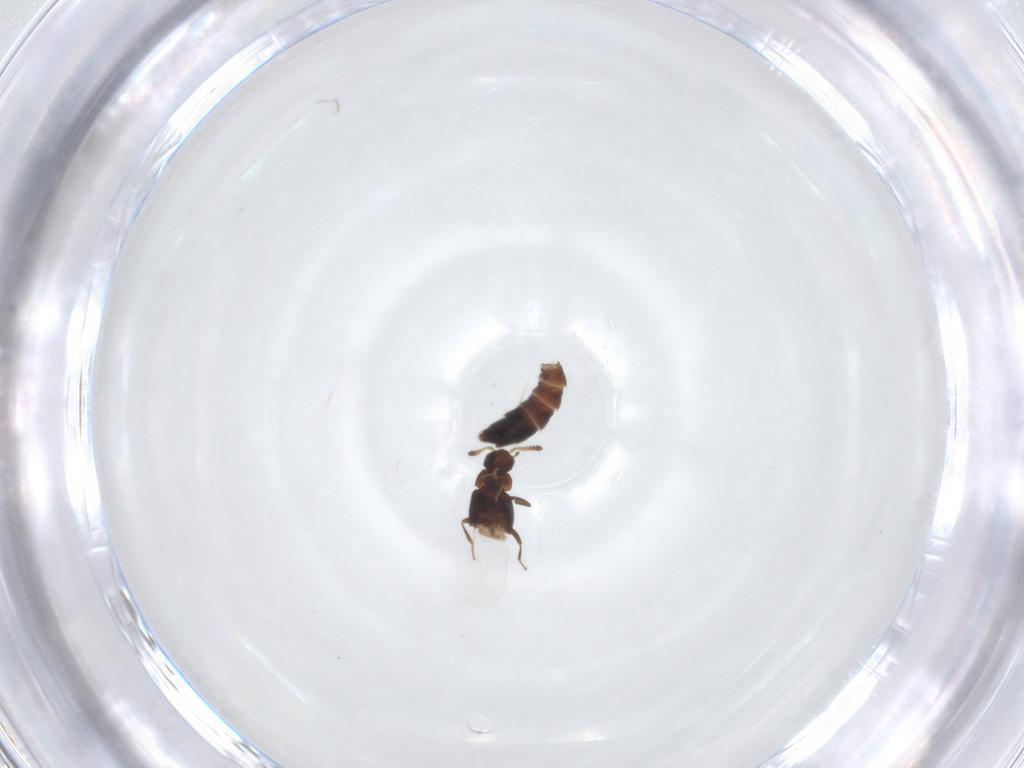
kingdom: Animalia
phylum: Arthropoda
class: Insecta
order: Coleoptera
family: Staphylinidae
